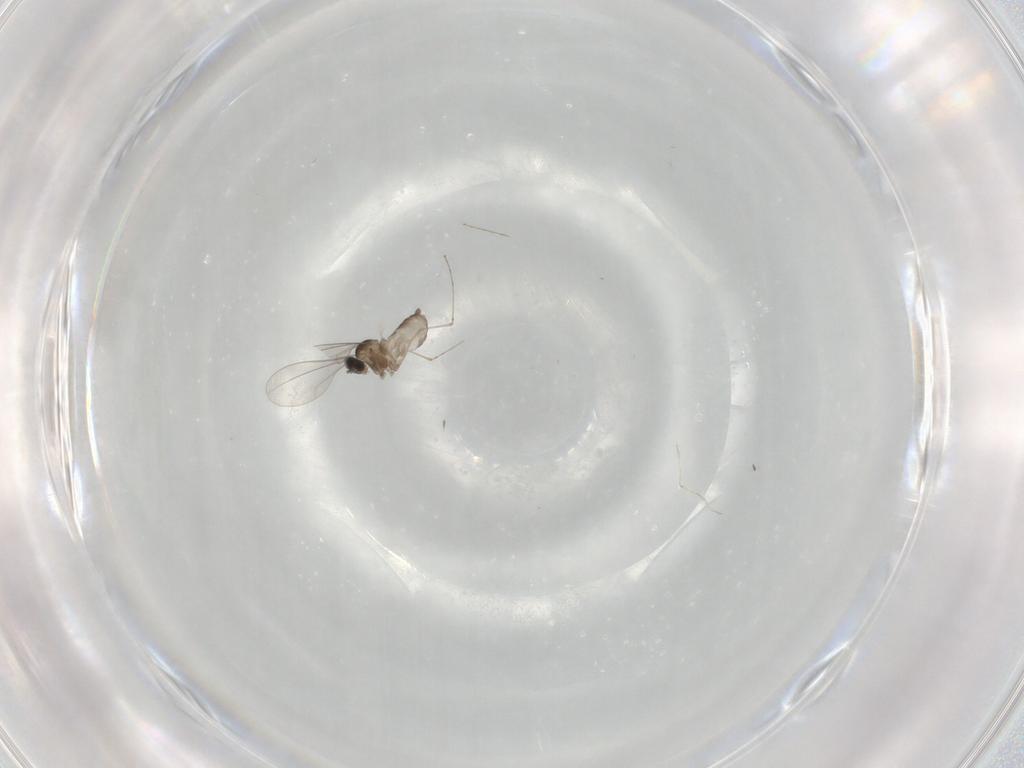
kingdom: Animalia
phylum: Arthropoda
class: Insecta
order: Diptera
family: Cecidomyiidae
